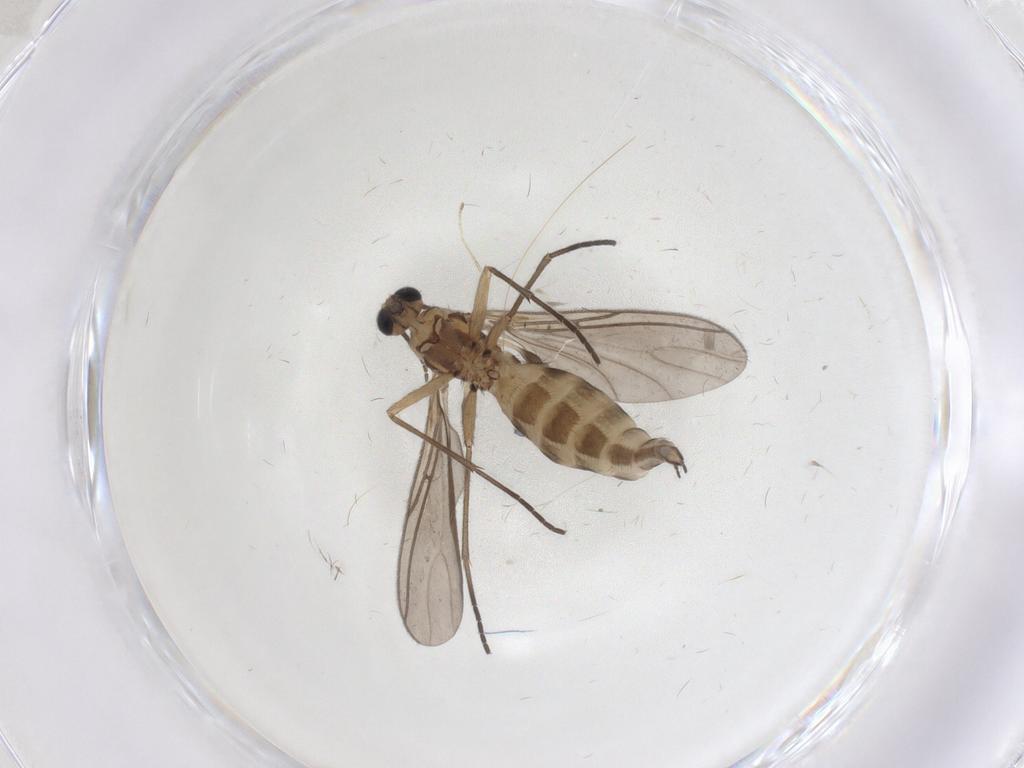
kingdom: Animalia
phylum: Arthropoda
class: Insecta
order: Diptera
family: Sciaridae
